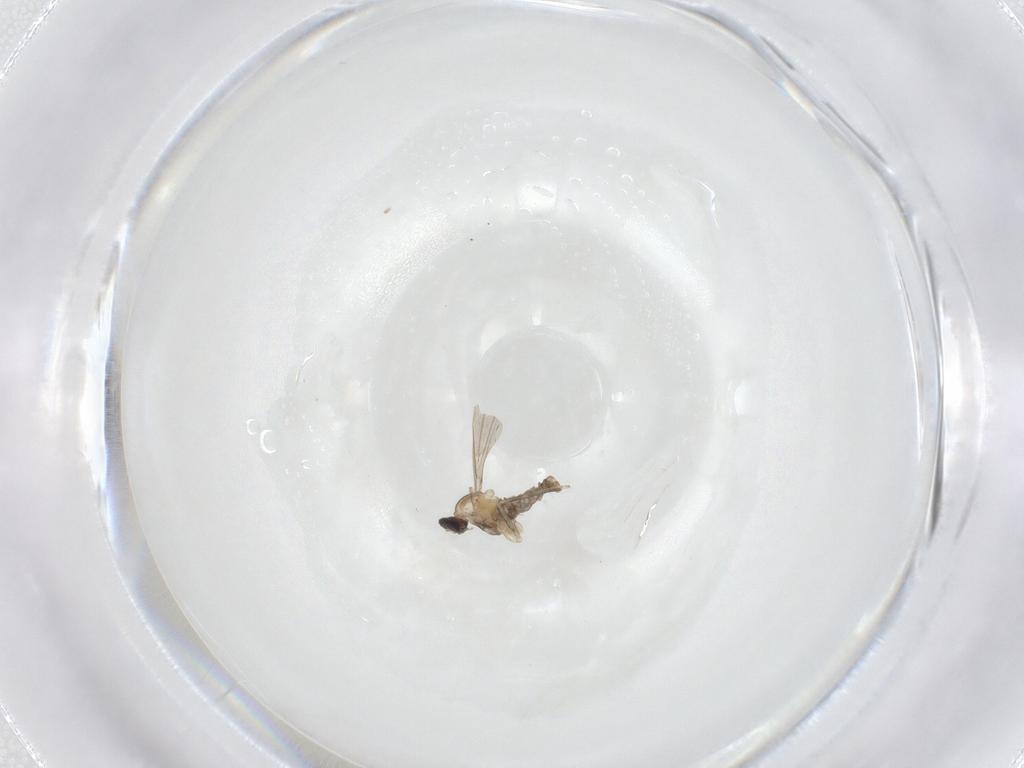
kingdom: Animalia
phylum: Arthropoda
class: Insecta
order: Diptera
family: Cecidomyiidae
